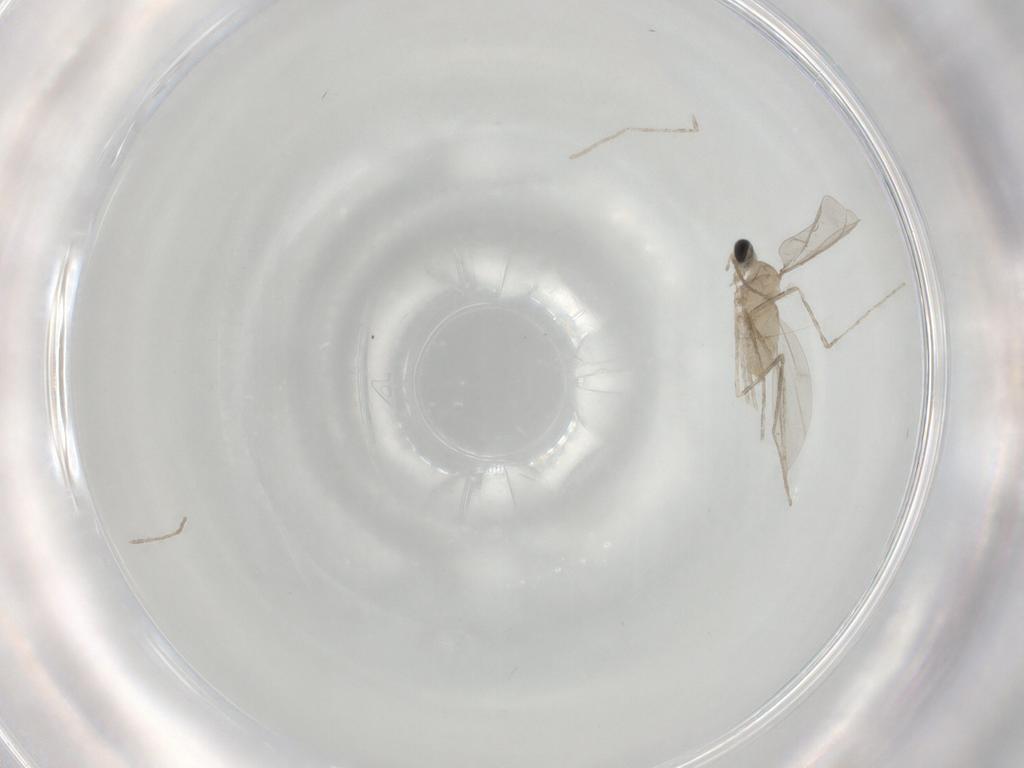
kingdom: Animalia
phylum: Arthropoda
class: Insecta
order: Diptera
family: Cecidomyiidae
